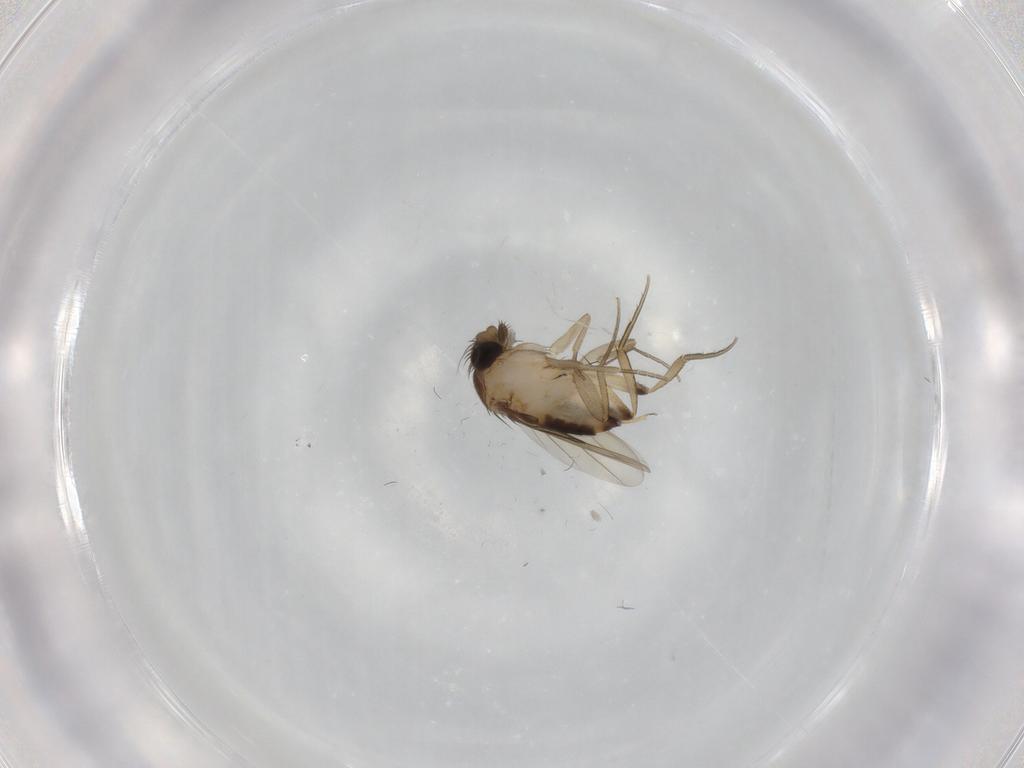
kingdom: Animalia
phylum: Arthropoda
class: Insecta
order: Diptera
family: Phoridae
